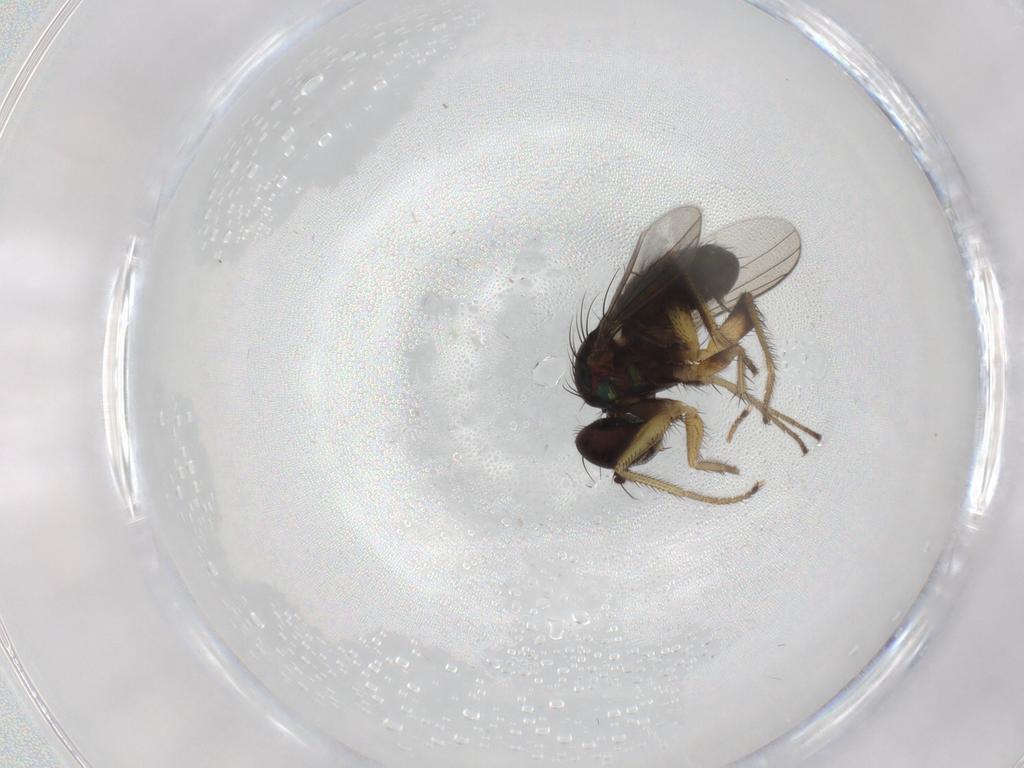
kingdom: Animalia
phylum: Arthropoda
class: Insecta
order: Diptera
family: Dolichopodidae
